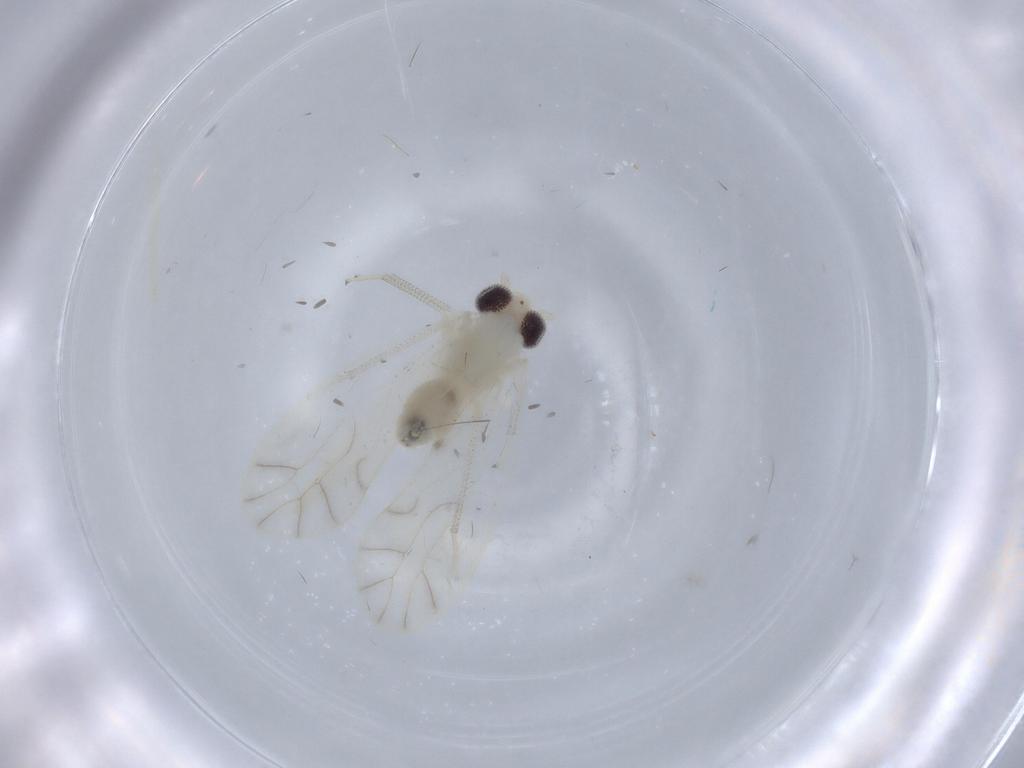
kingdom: Animalia
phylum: Arthropoda
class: Insecta
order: Psocodea
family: Caeciliusidae
